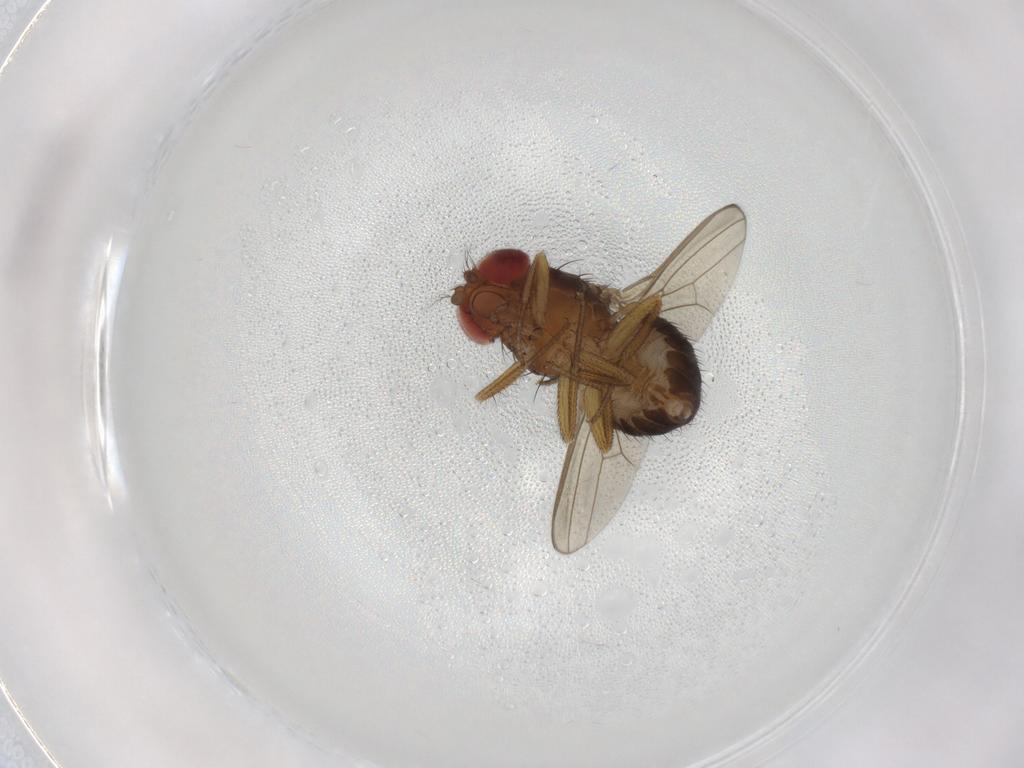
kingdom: Animalia
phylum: Arthropoda
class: Insecta
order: Diptera
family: Drosophilidae
